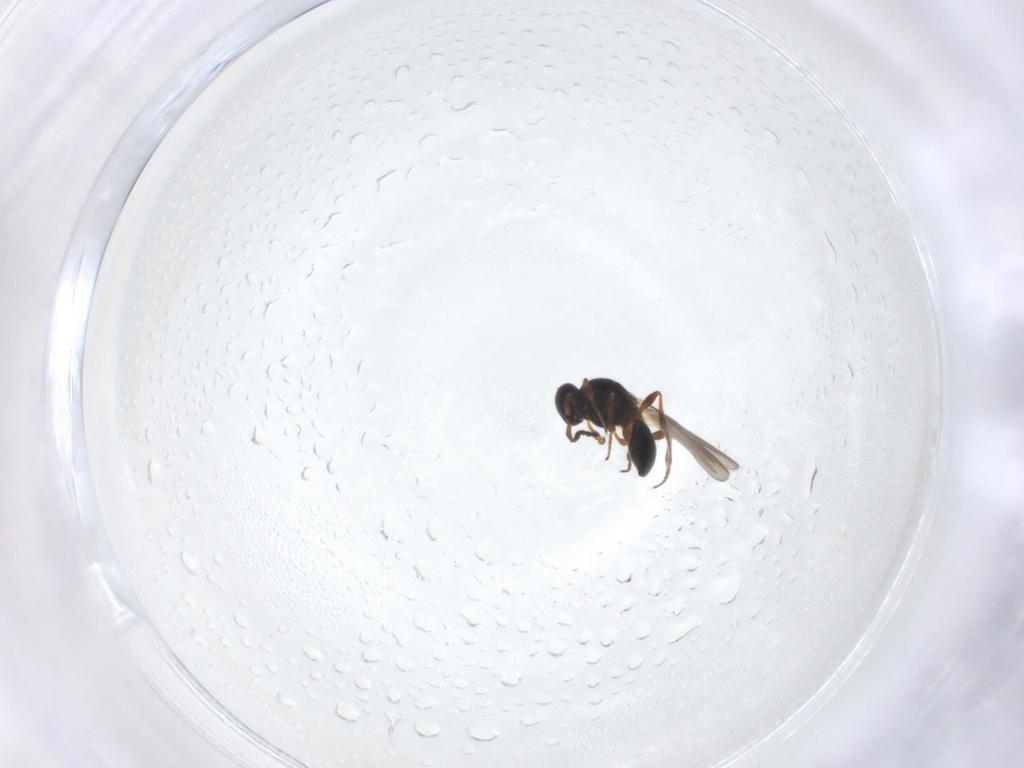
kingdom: Animalia
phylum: Arthropoda
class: Insecta
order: Hymenoptera
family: Platygastridae
